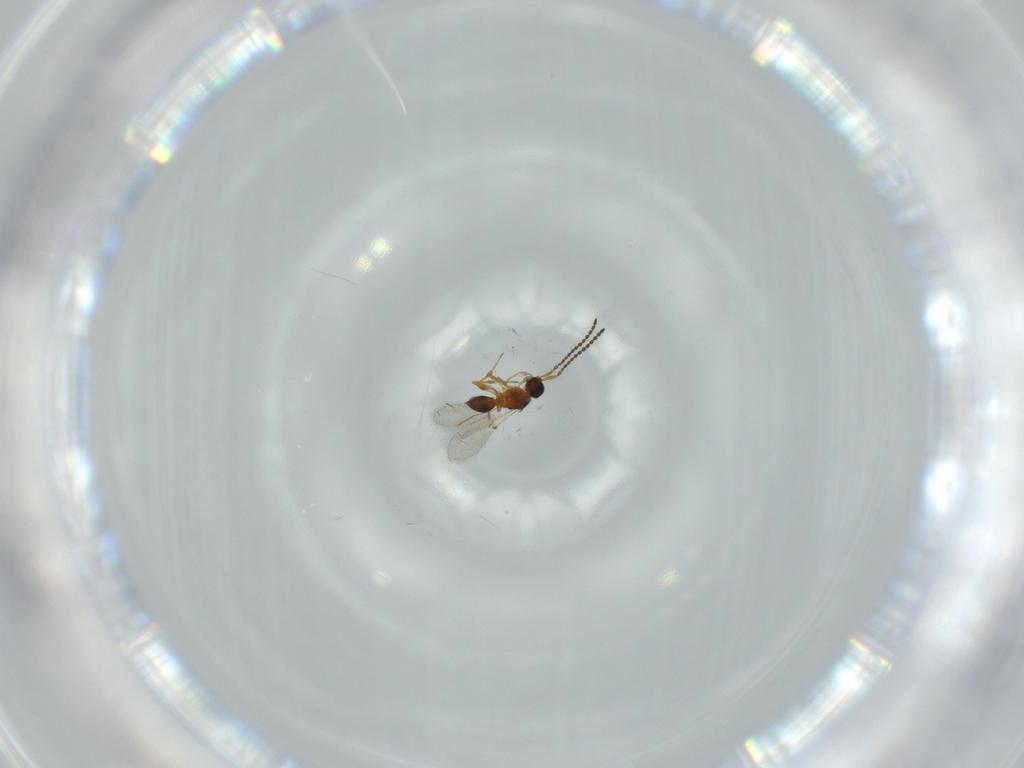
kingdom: Animalia
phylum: Arthropoda
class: Insecta
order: Hymenoptera
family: Diapriidae
